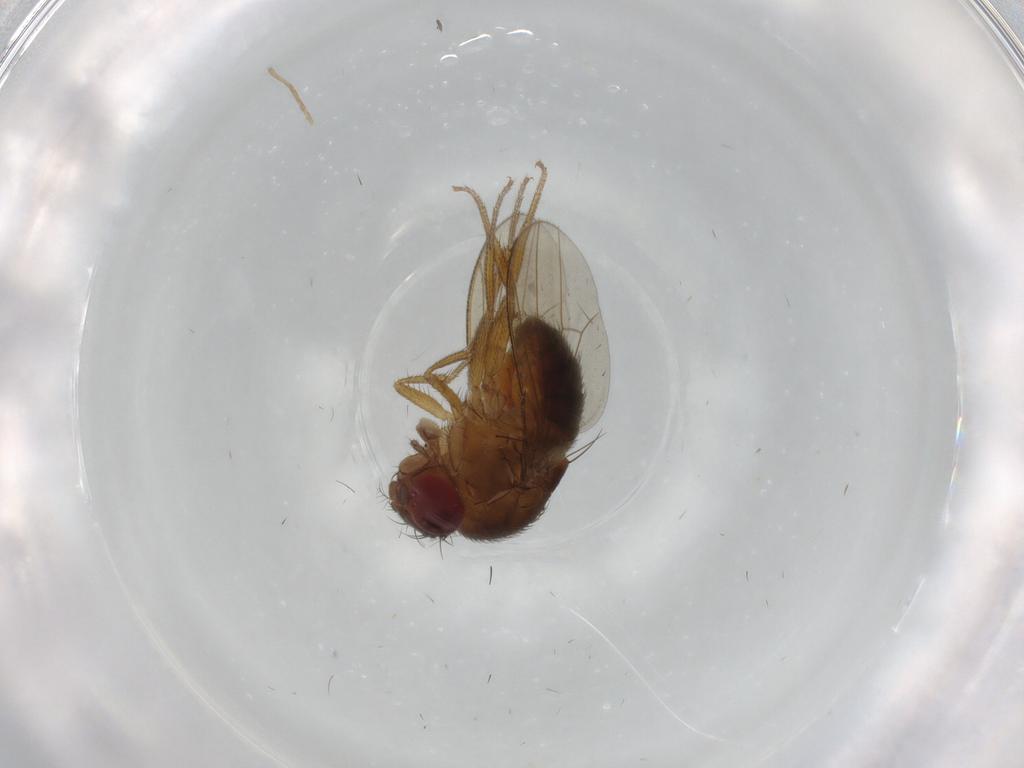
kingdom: Animalia
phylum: Arthropoda
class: Insecta
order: Diptera
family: Drosophilidae
